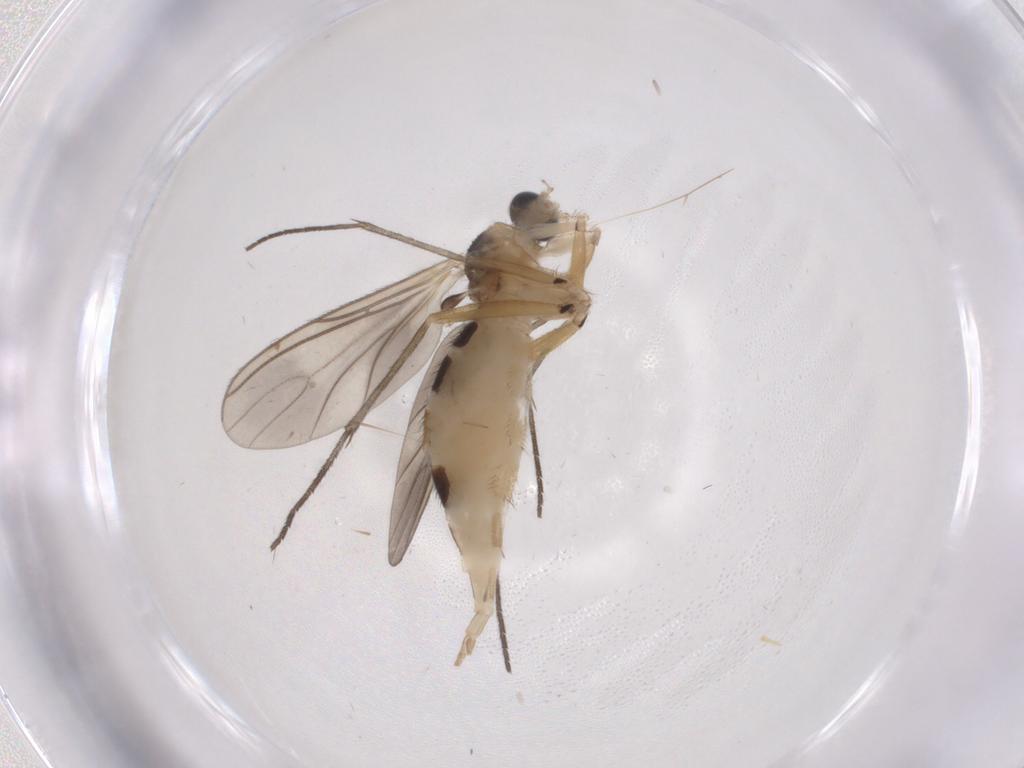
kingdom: Animalia
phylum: Arthropoda
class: Insecta
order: Diptera
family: Sciaridae
